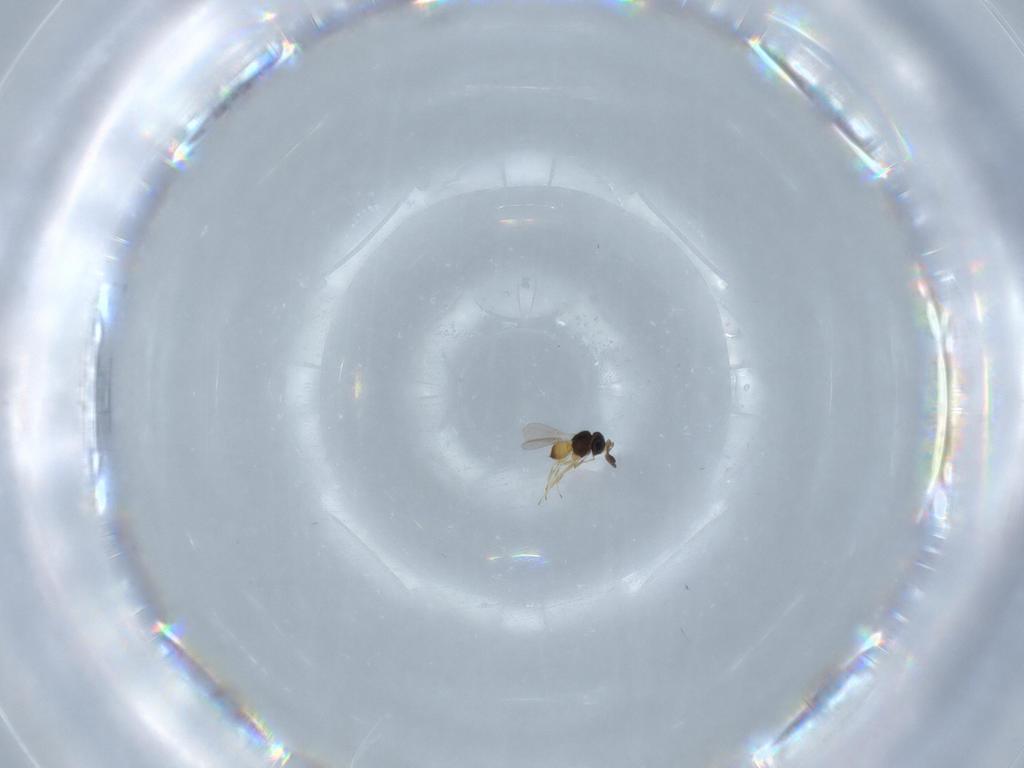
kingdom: Animalia
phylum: Arthropoda
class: Insecta
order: Hymenoptera
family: Scelionidae
